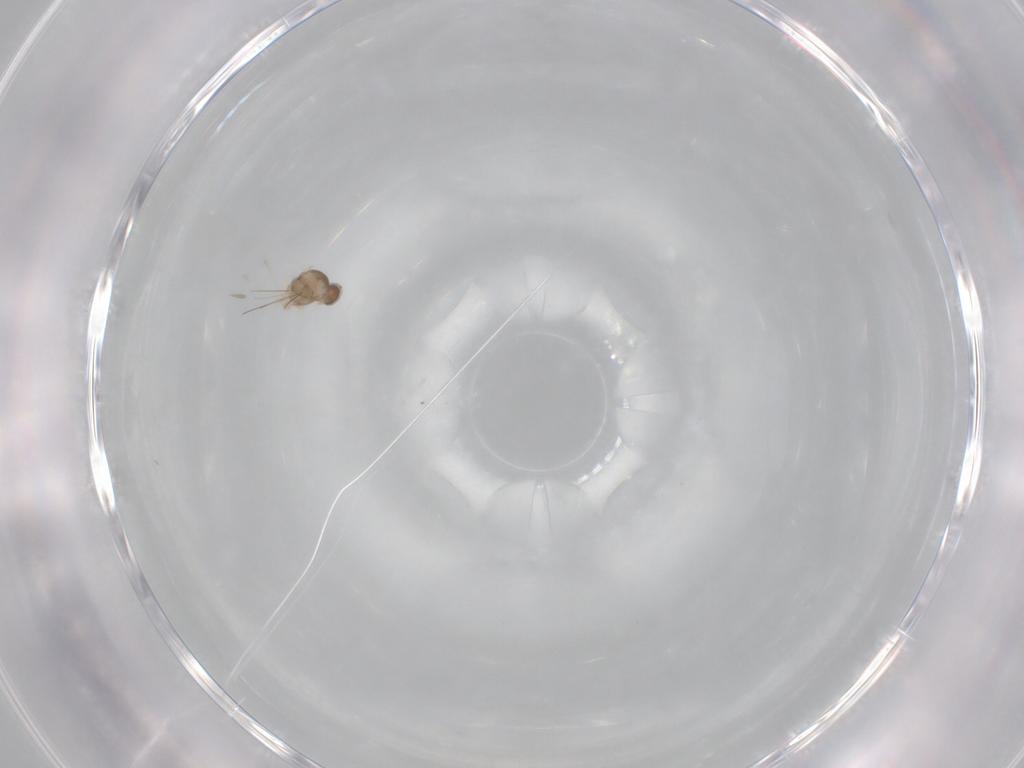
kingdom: Animalia
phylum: Arthropoda
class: Insecta
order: Diptera
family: Cecidomyiidae
